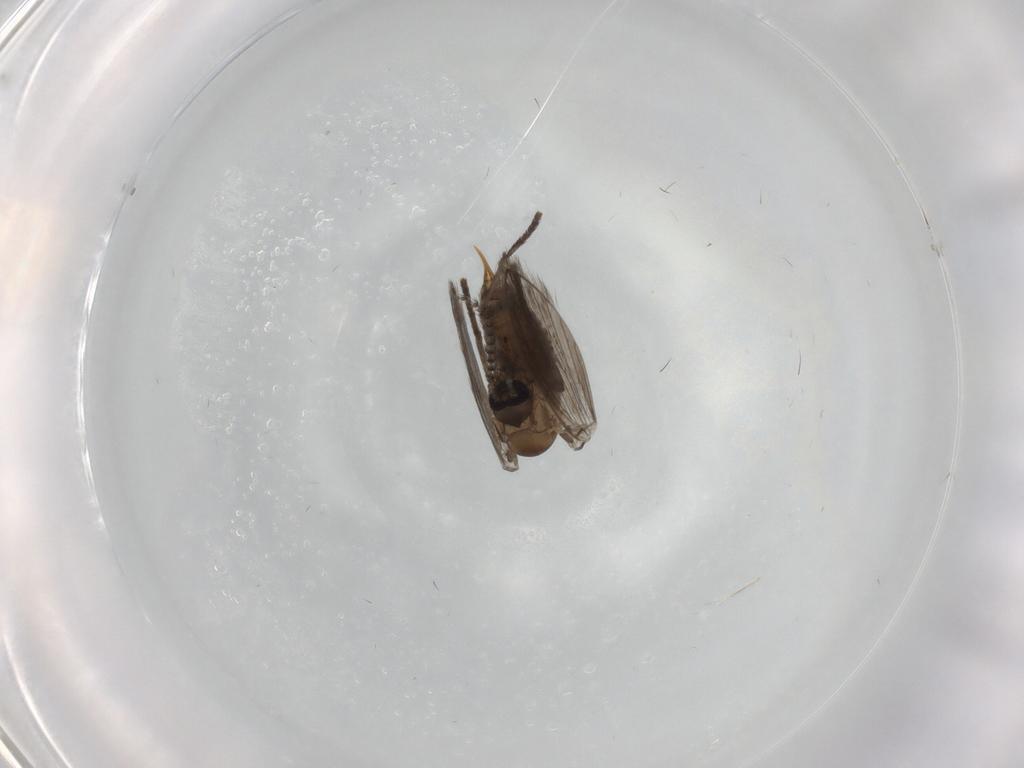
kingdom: Animalia
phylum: Arthropoda
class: Insecta
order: Diptera
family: Psychodidae
